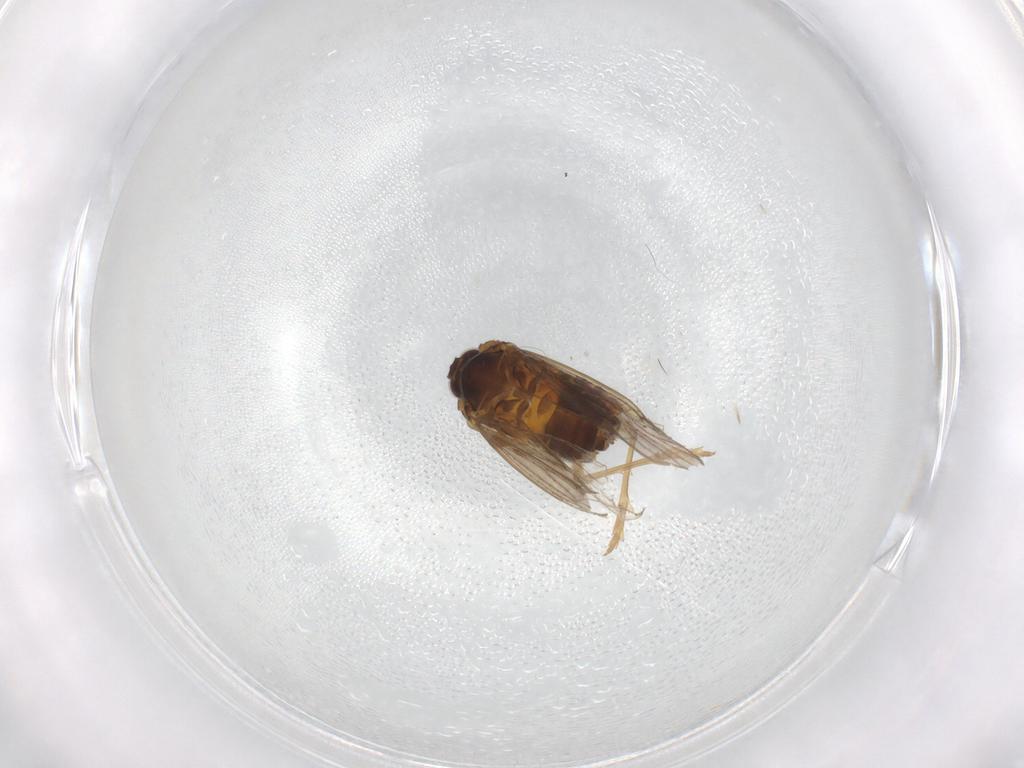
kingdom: Animalia
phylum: Arthropoda
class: Insecta
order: Hemiptera
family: Delphacidae
